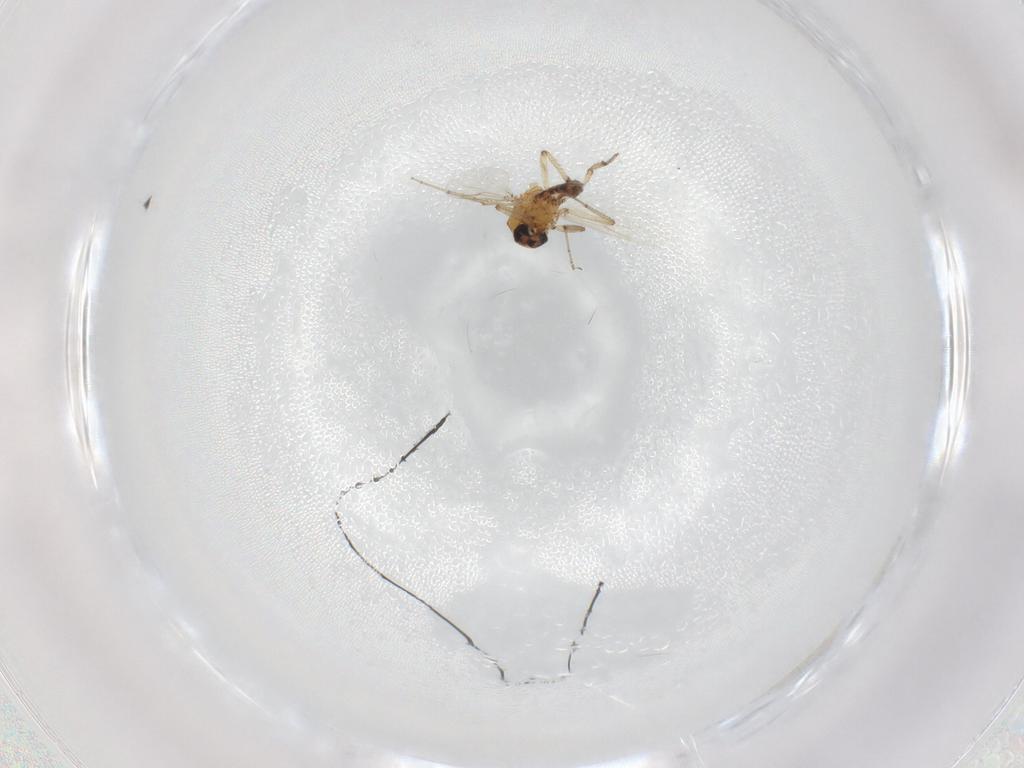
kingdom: Animalia
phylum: Arthropoda
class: Insecta
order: Diptera
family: Ceratopogonidae
